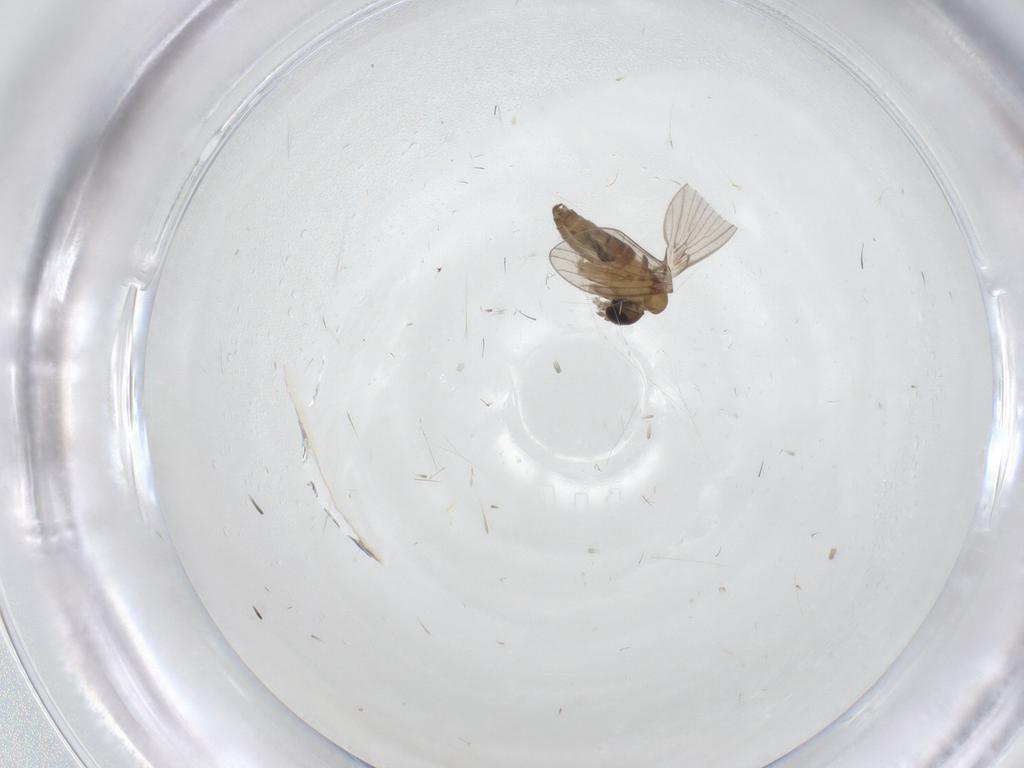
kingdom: Animalia
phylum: Arthropoda
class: Insecta
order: Diptera
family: Mycetophilidae
